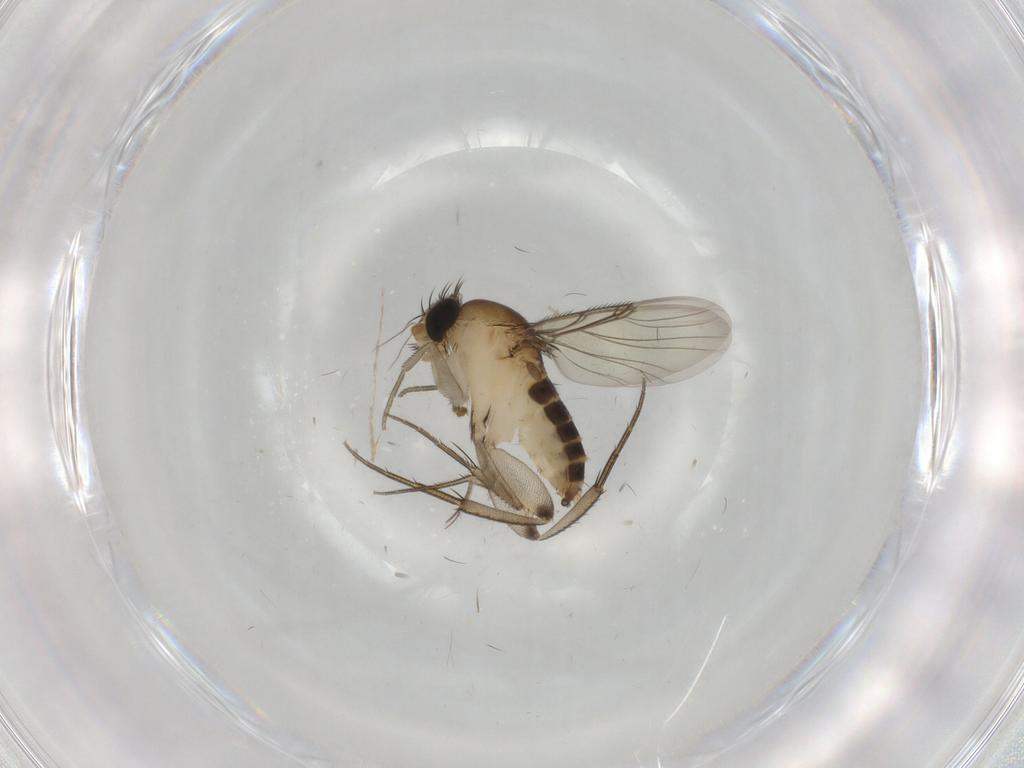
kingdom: Animalia
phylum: Arthropoda
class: Insecta
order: Diptera
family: Phoridae
